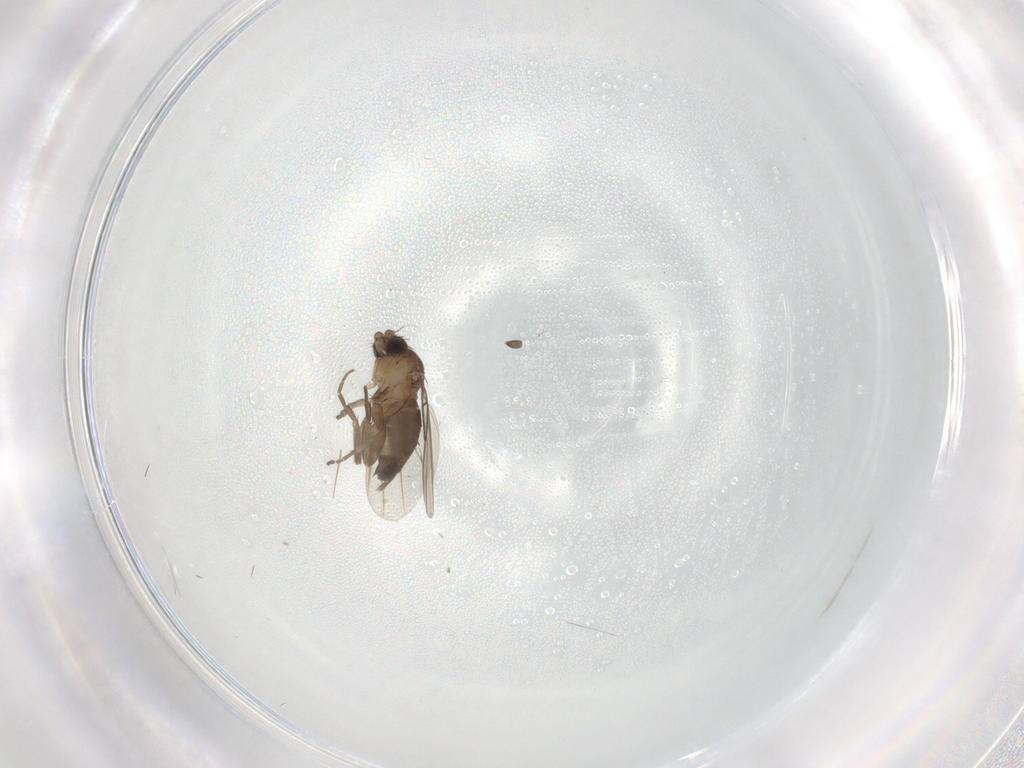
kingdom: Animalia
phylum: Arthropoda
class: Insecta
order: Diptera
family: Phoridae
